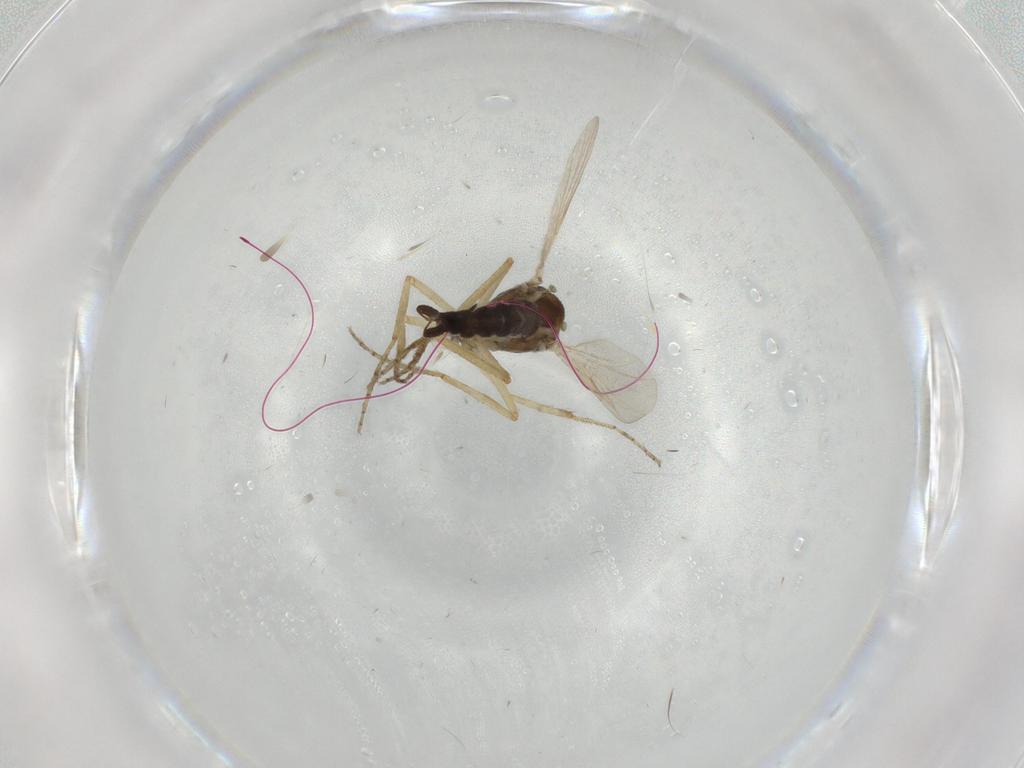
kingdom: Animalia
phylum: Arthropoda
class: Insecta
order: Diptera
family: Ceratopogonidae
